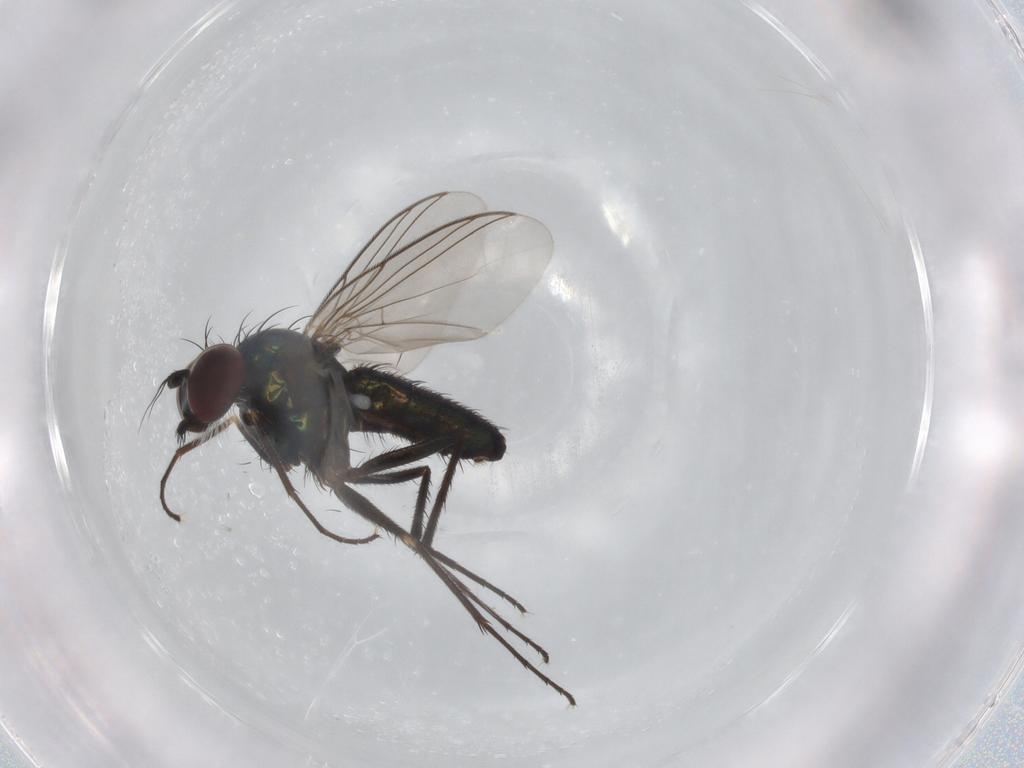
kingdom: Animalia
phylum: Arthropoda
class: Insecta
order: Diptera
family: Dolichopodidae
